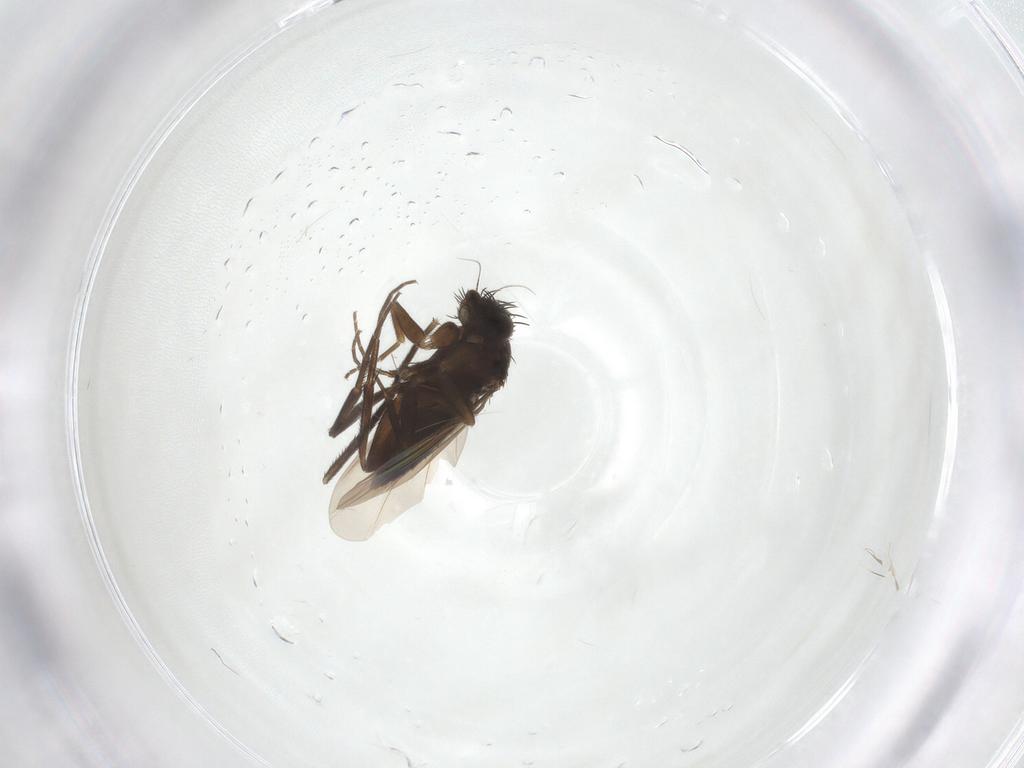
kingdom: Animalia
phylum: Arthropoda
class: Insecta
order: Diptera
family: Phoridae
